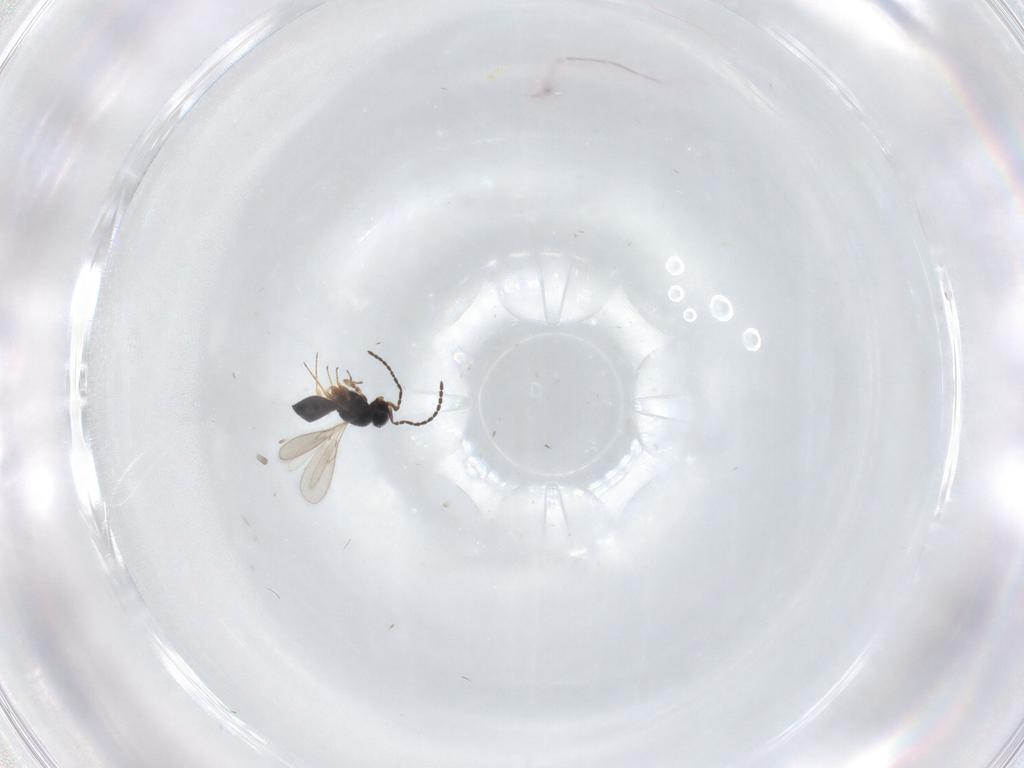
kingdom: Animalia
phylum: Arthropoda
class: Insecta
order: Hymenoptera
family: Scelionidae
